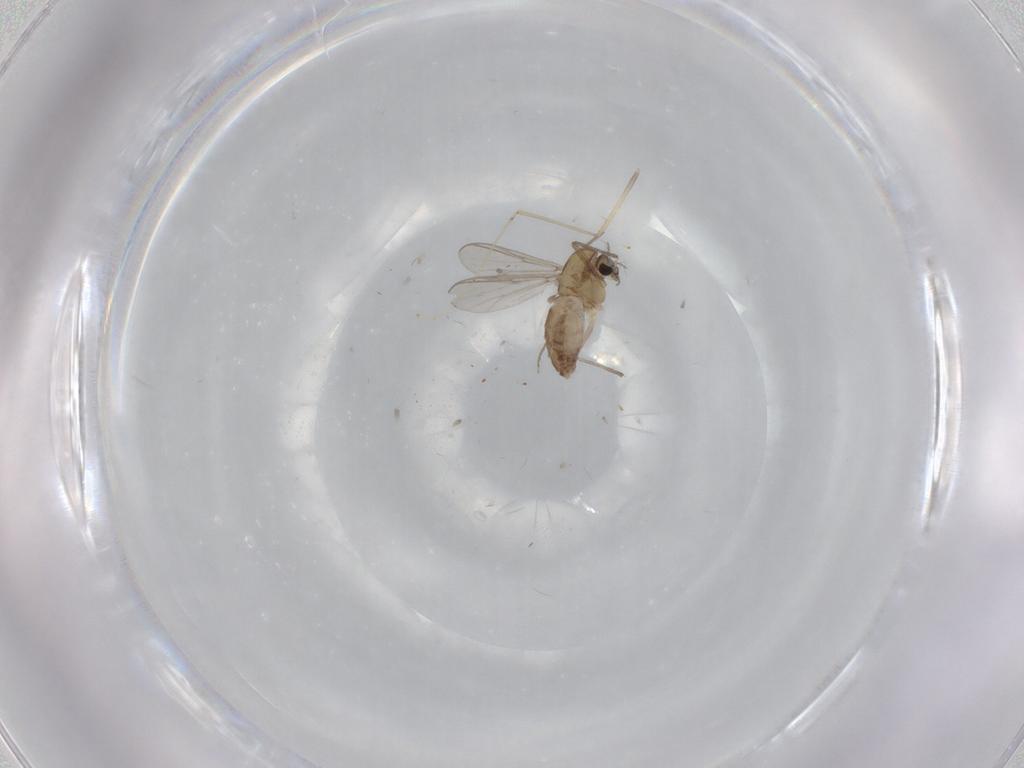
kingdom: Animalia
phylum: Arthropoda
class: Insecta
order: Diptera
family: Chironomidae
